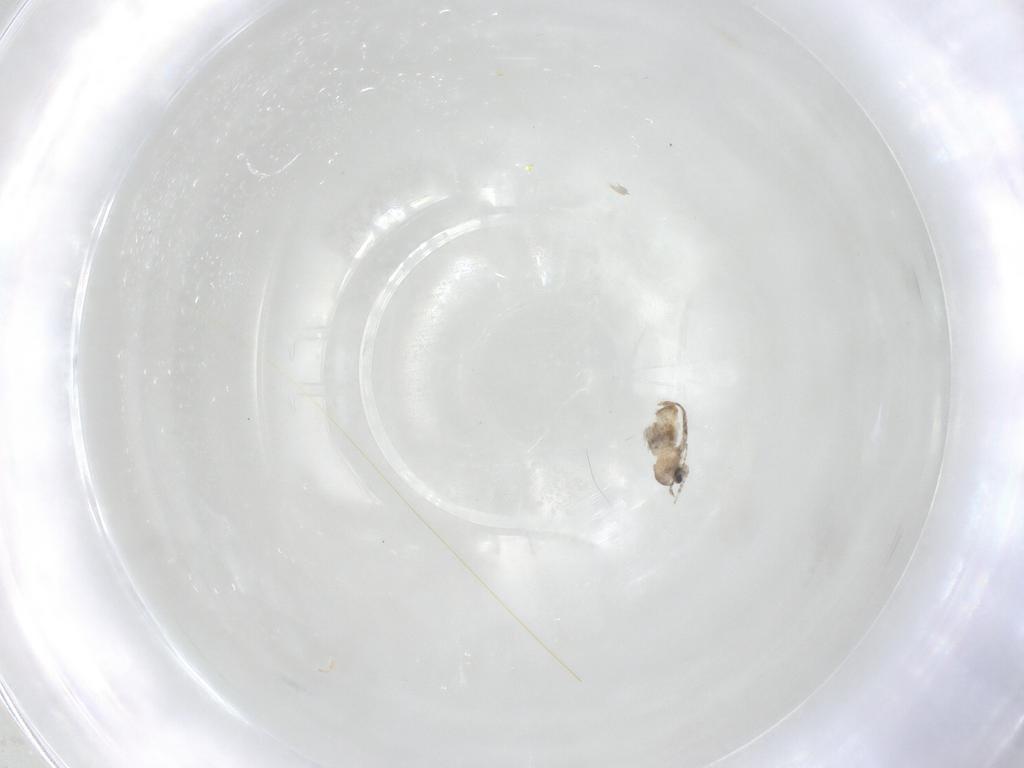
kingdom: Animalia
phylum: Arthropoda
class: Insecta
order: Diptera
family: Cecidomyiidae
